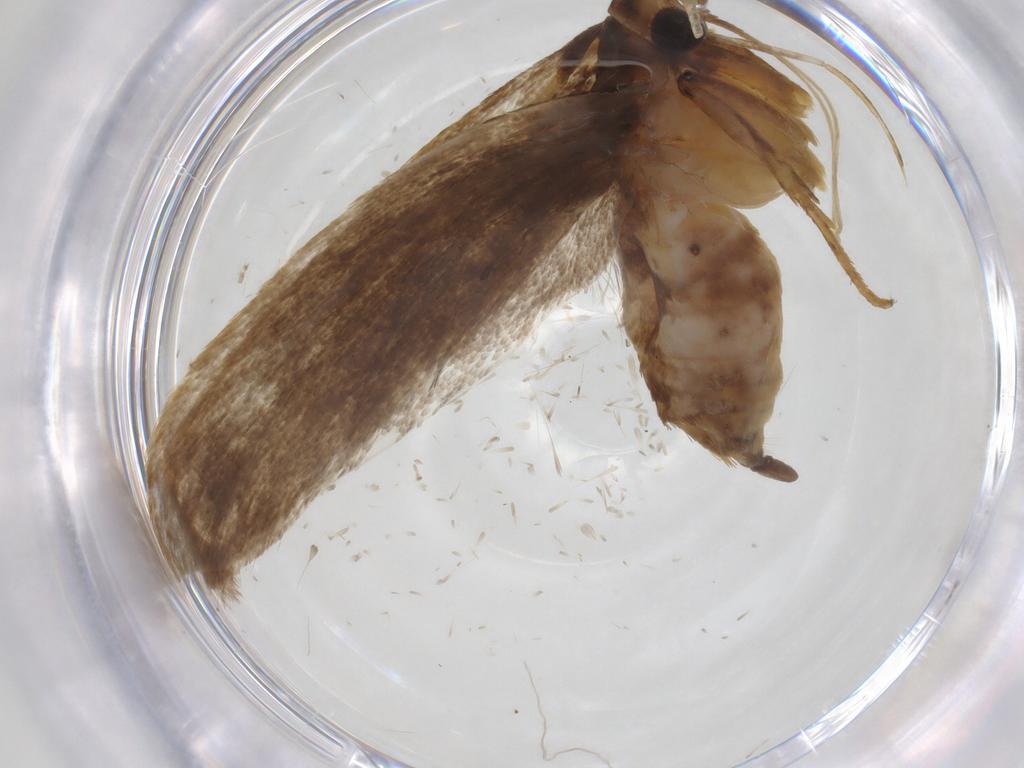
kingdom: Animalia
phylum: Arthropoda
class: Insecta
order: Lepidoptera
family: Lecithoceridae
